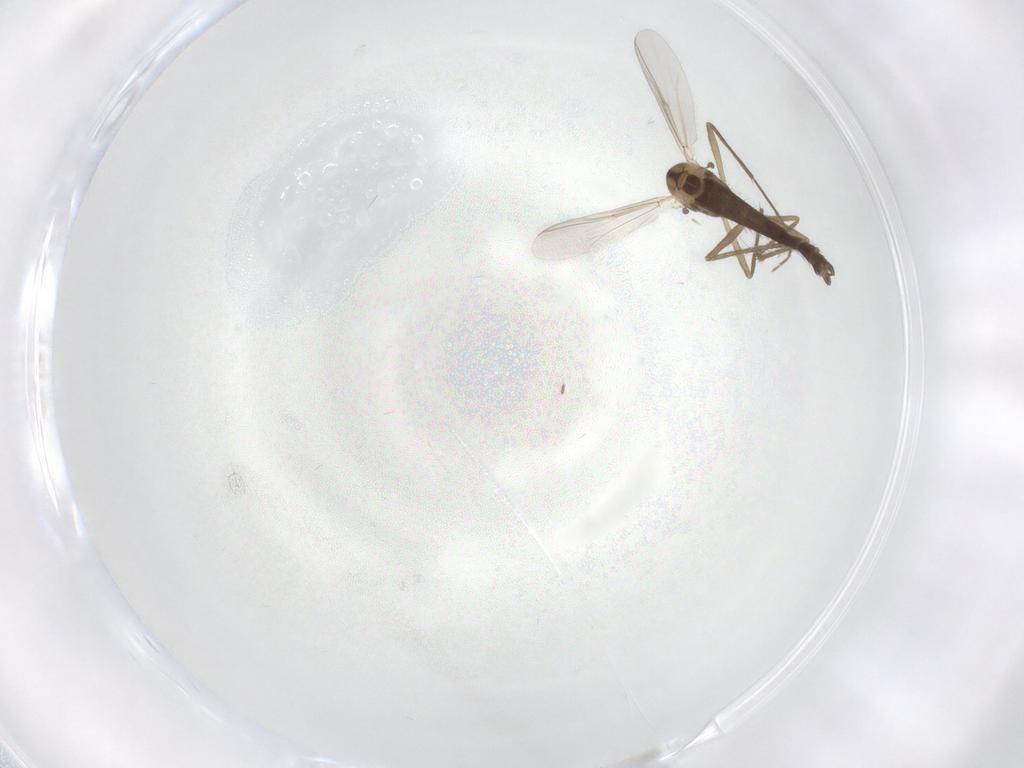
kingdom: Animalia
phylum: Arthropoda
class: Insecta
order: Diptera
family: Chironomidae
